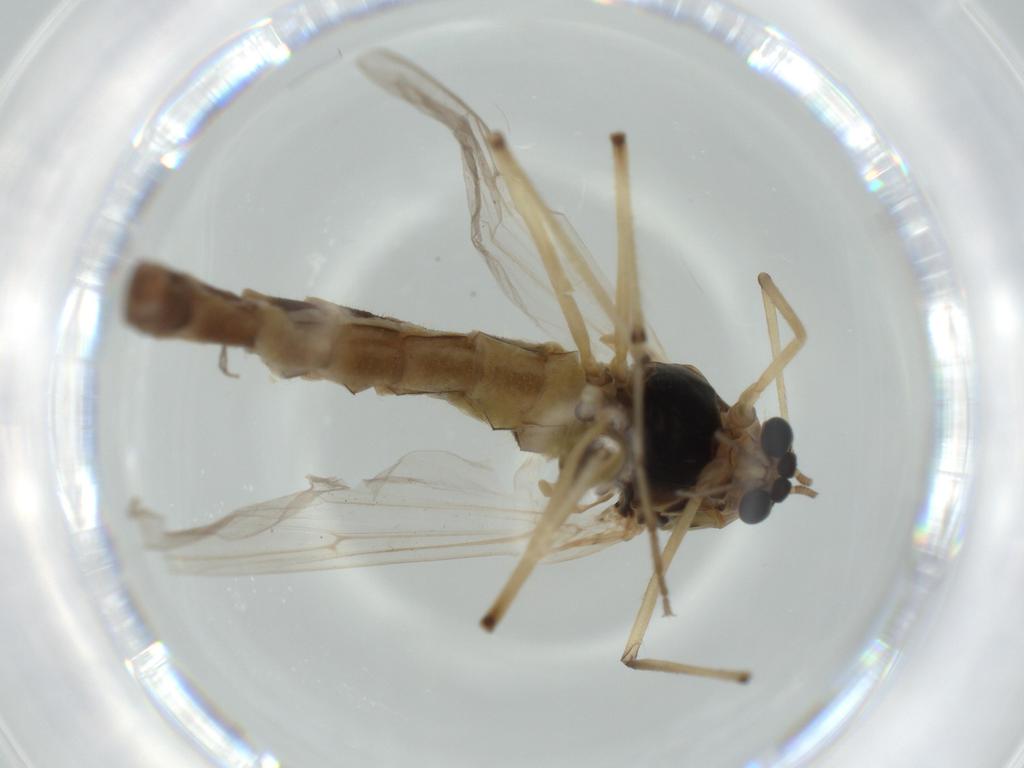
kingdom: Animalia
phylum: Arthropoda
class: Insecta
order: Diptera
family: Chironomidae
